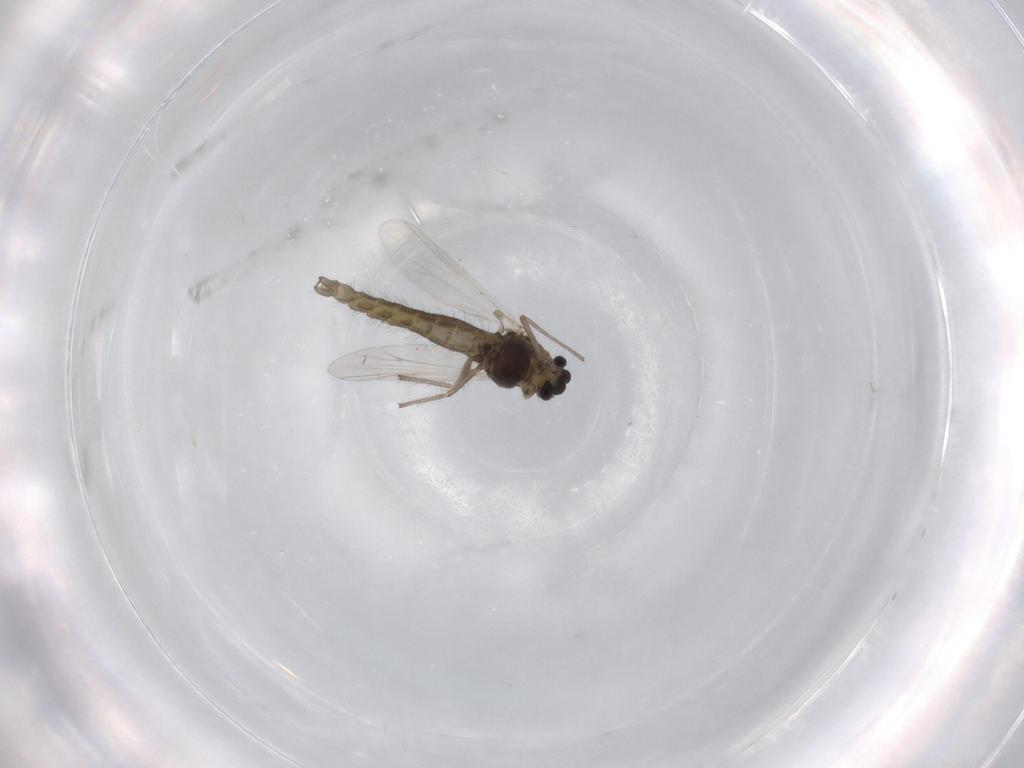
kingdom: Animalia
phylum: Arthropoda
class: Insecta
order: Diptera
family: Chironomidae
